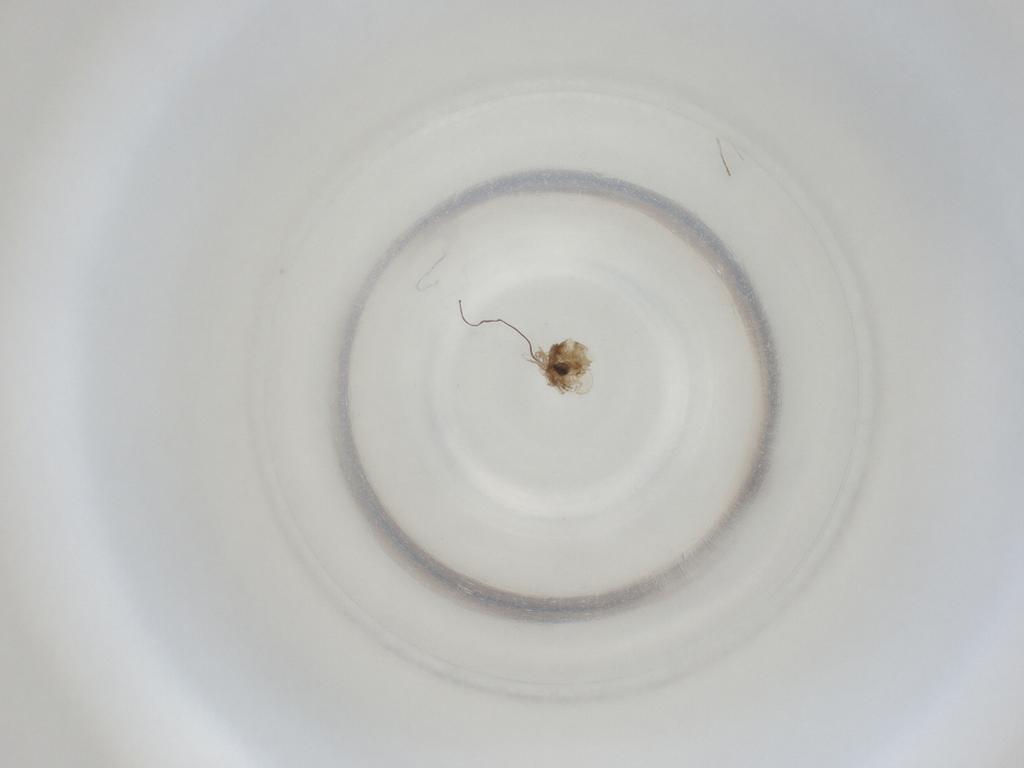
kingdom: Animalia
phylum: Arthropoda
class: Insecta
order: Diptera
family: Cecidomyiidae
